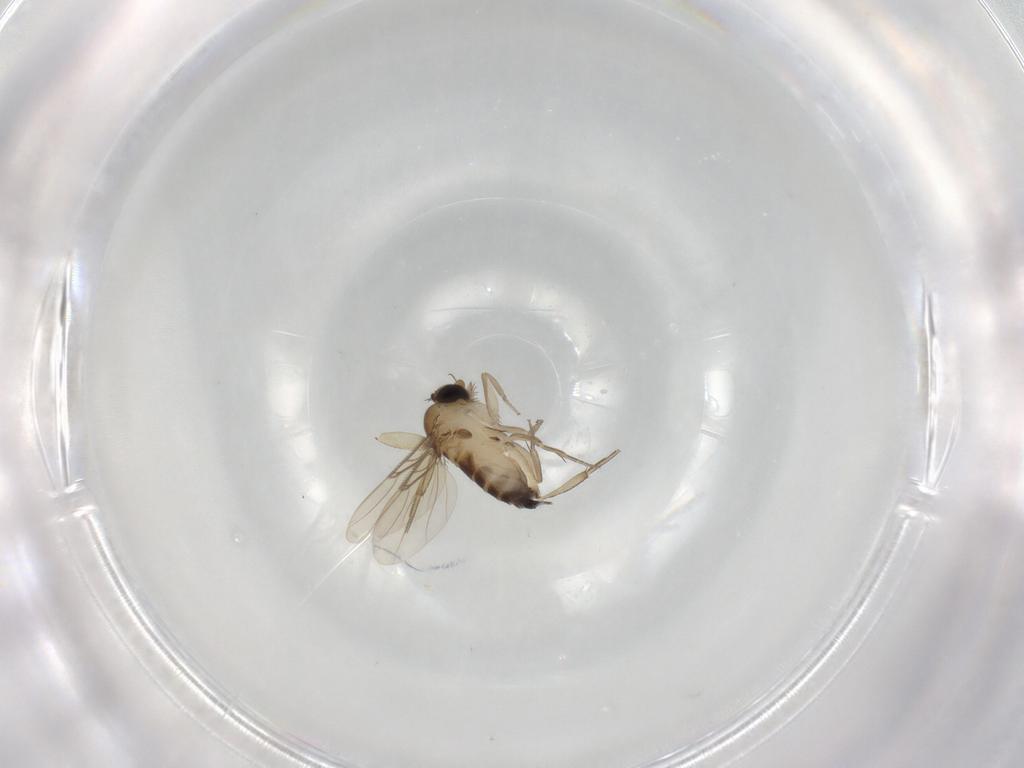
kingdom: Animalia
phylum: Arthropoda
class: Insecta
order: Diptera
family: Phoridae
